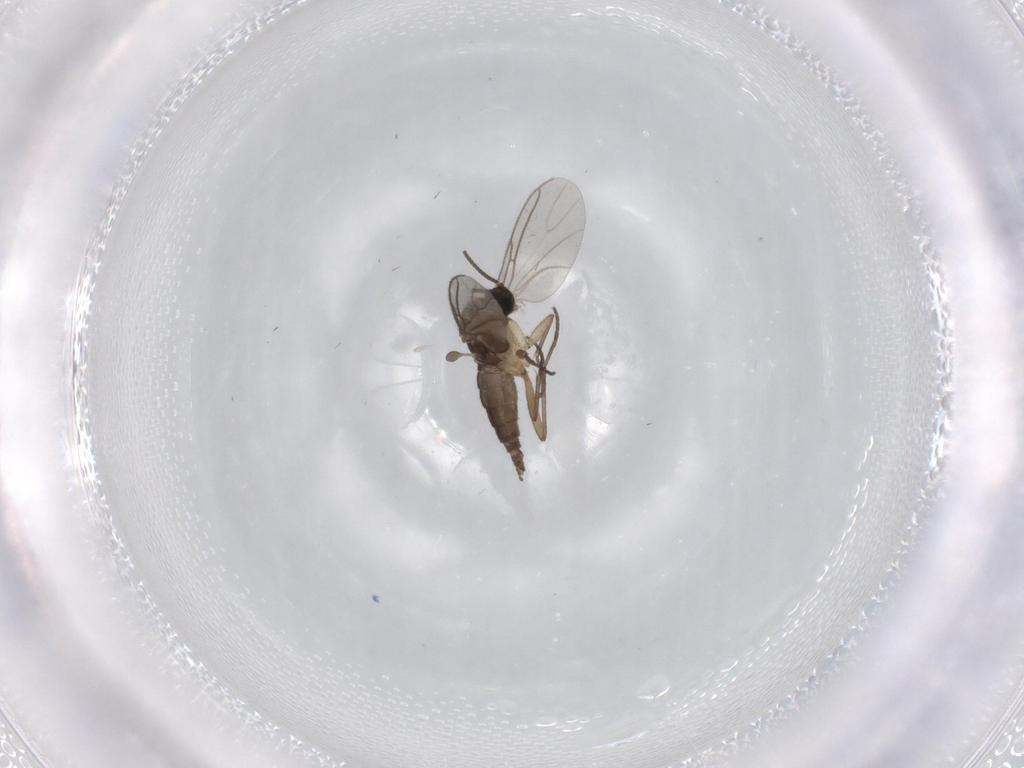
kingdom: Animalia
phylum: Arthropoda
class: Insecta
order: Diptera
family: Sciaridae
